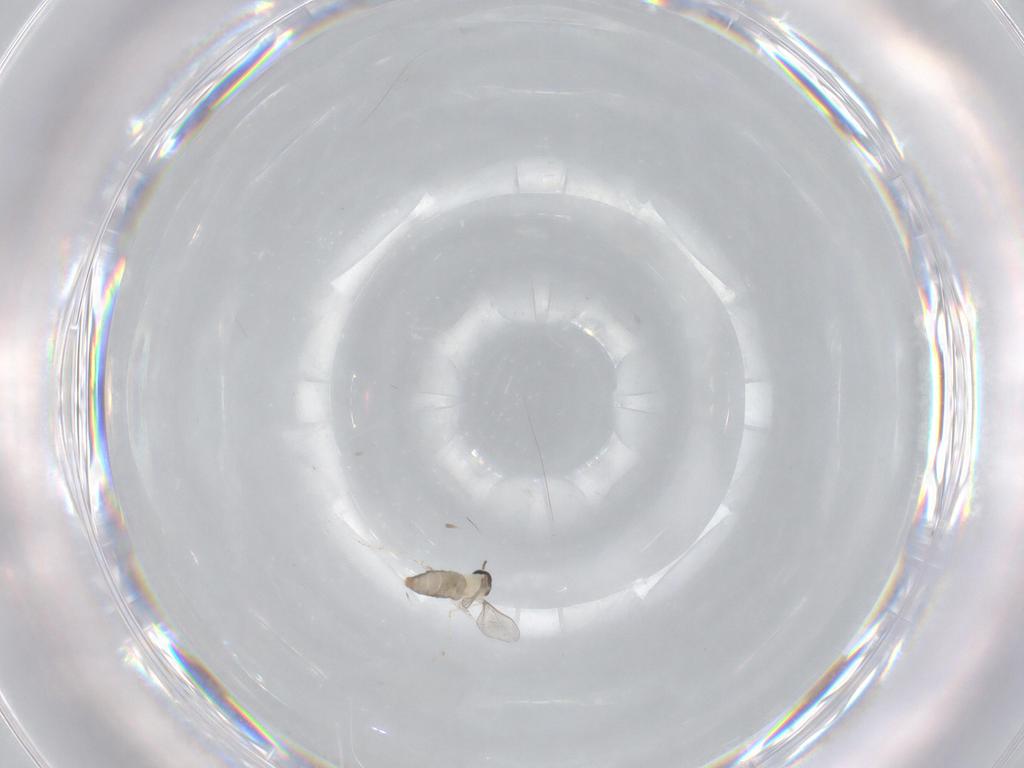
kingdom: Animalia
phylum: Arthropoda
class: Insecta
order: Diptera
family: Cecidomyiidae
